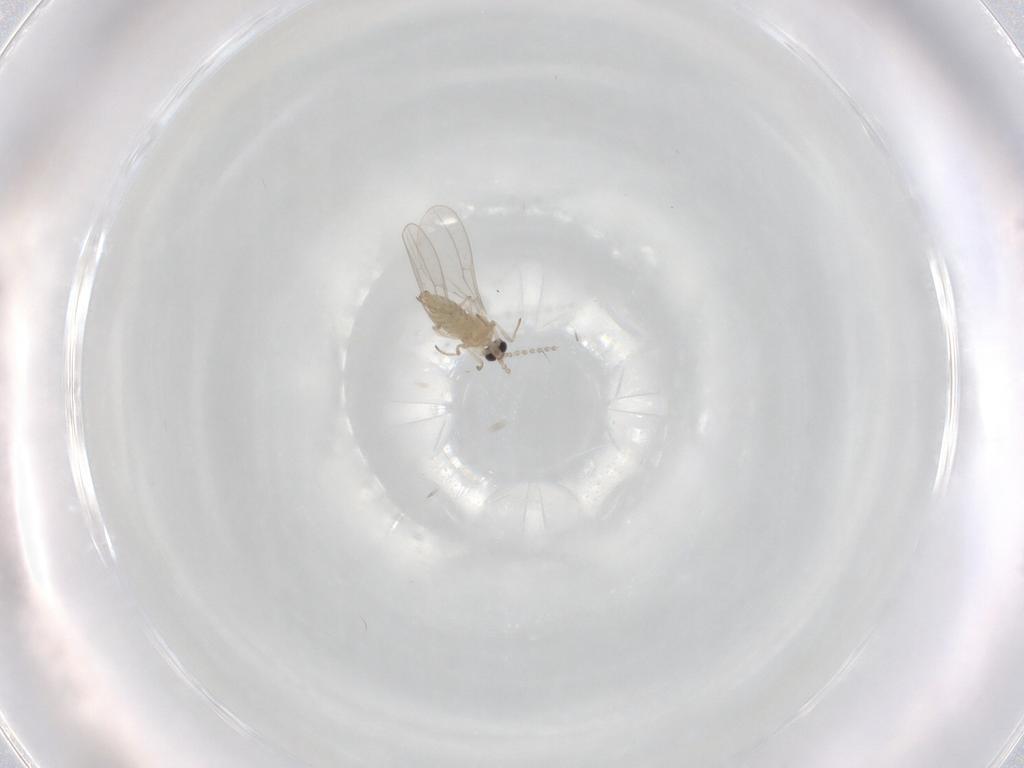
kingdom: Animalia
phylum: Arthropoda
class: Insecta
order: Diptera
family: Cecidomyiidae
